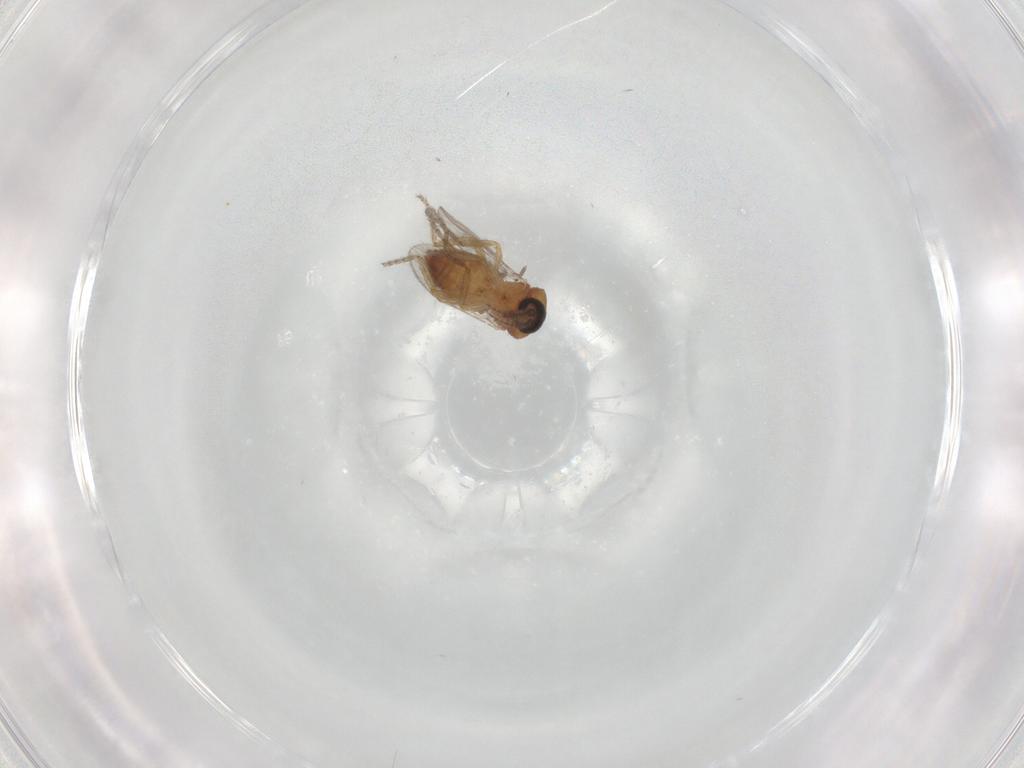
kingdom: Animalia
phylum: Arthropoda
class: Insecta
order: Diptera
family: Ceratopogonidae
